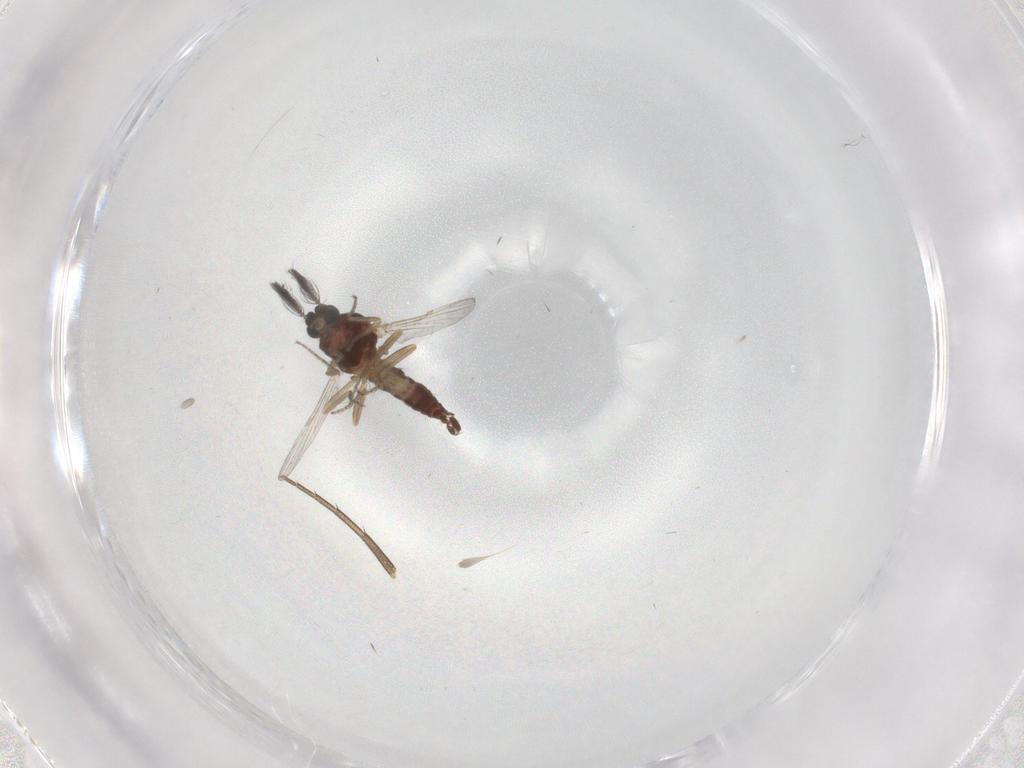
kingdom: Animalia
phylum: Arthropoda
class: Insecta
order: Diptera
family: Ceratopogonidae
